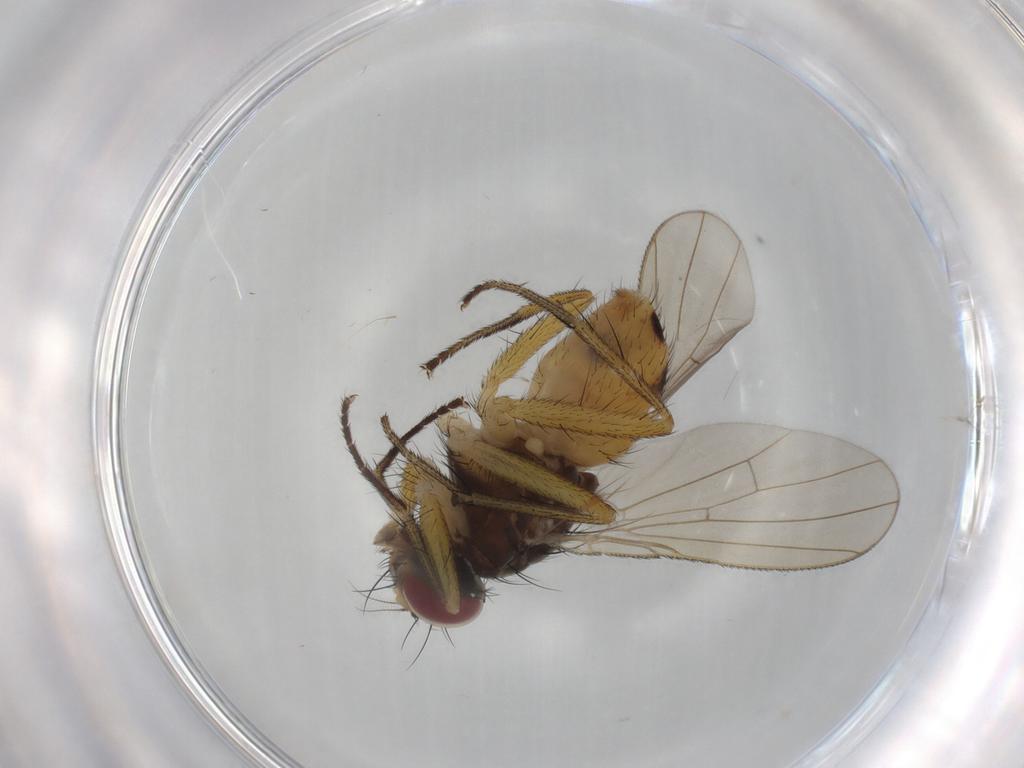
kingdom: Animalia
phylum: Arthropoda
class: Insecta
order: Diptera
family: Muscidae
